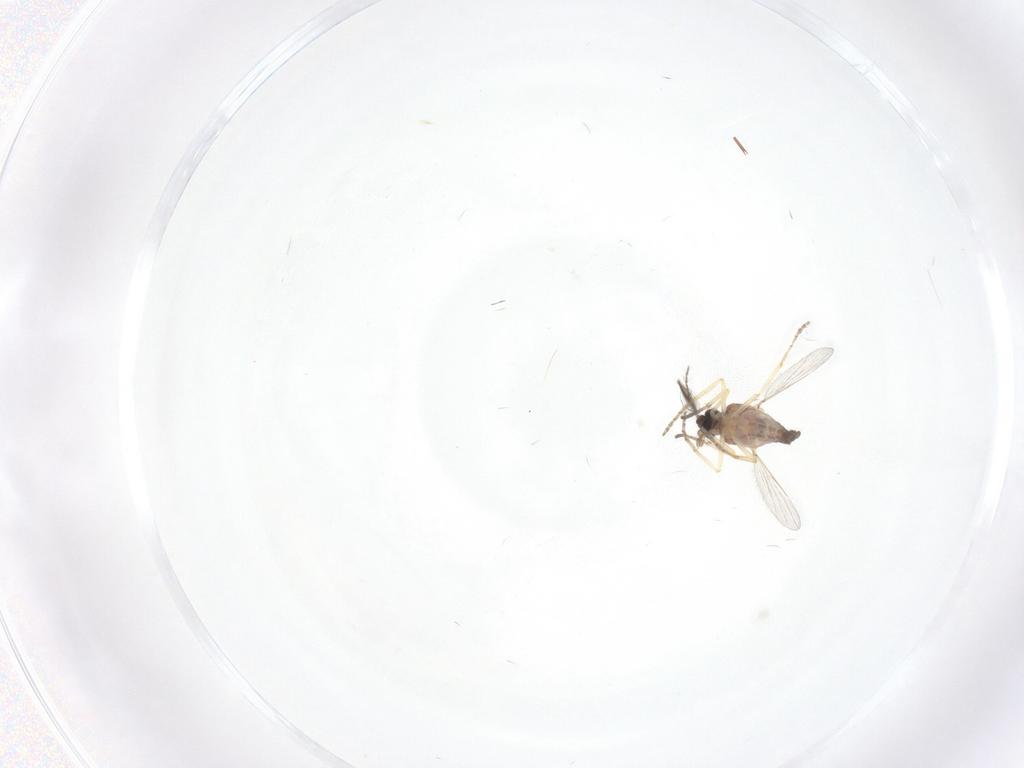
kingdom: Animalia
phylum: Arthropoda
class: Insecta
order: Diptera
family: Ceratopogonidae
